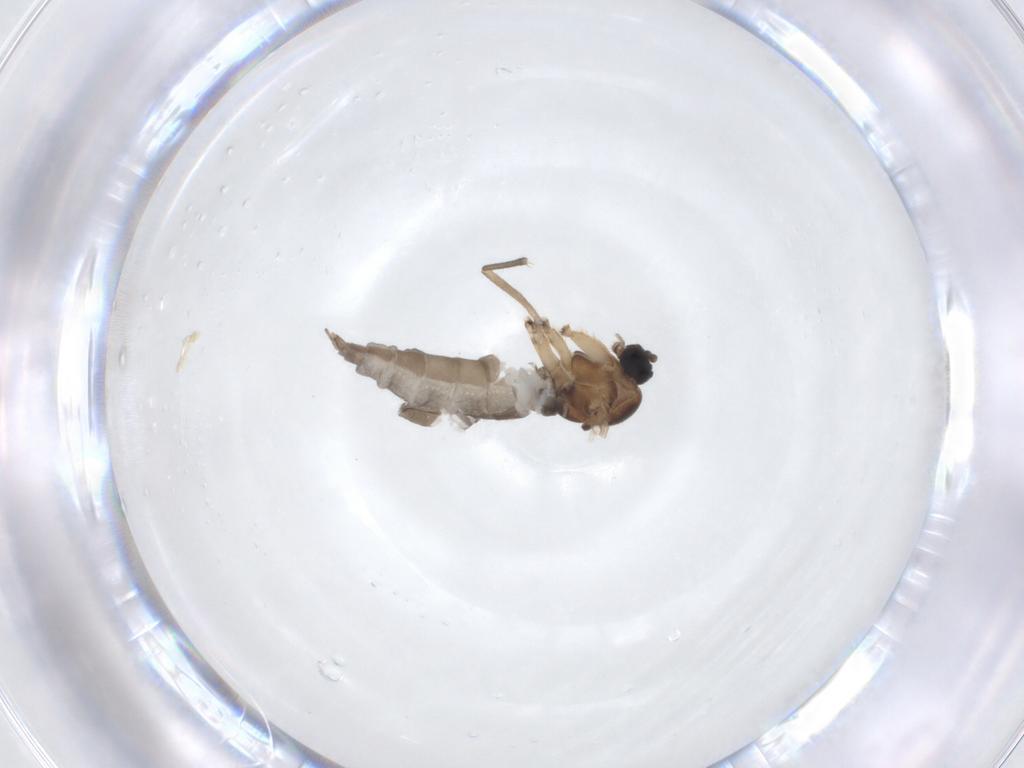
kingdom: Animalia
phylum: Arthropoda
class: Insecta
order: Diptera
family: Sciaridae
